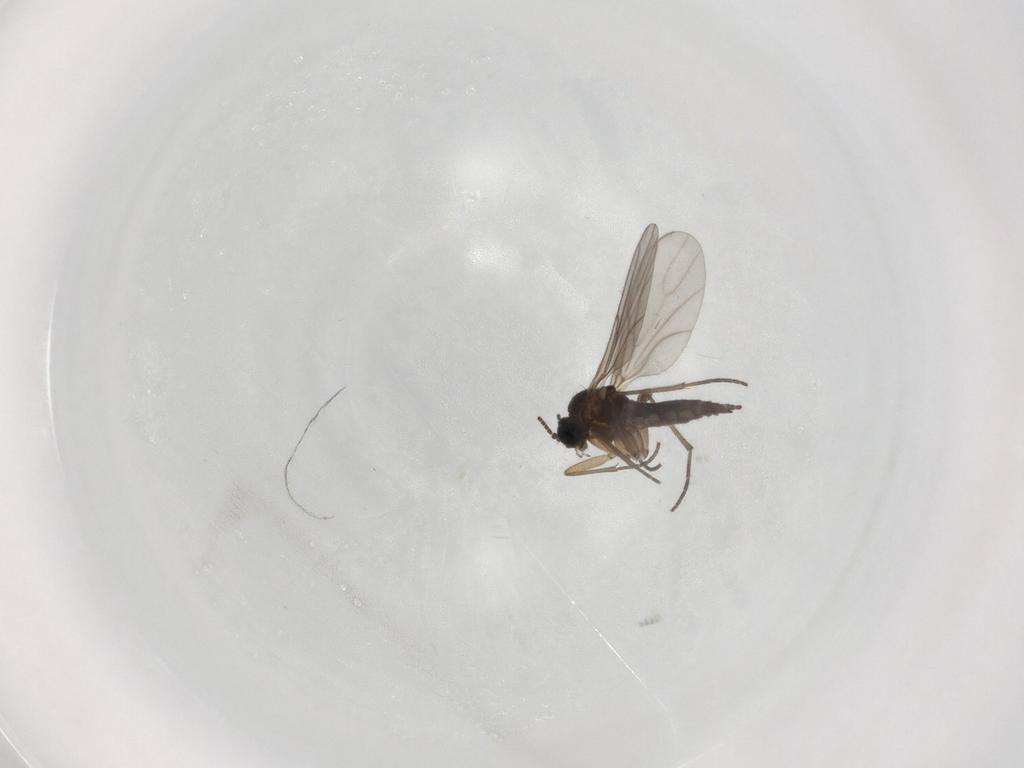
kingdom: Animalia
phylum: Arthropoda
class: Insecta
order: Diptera
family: Sciaridae
